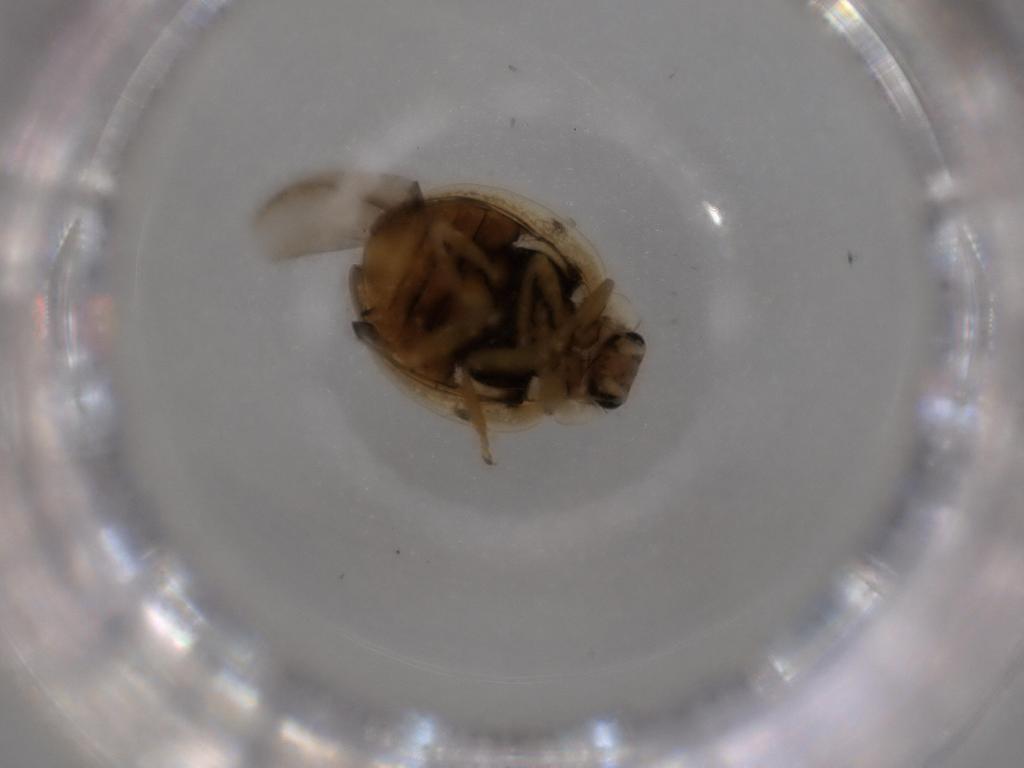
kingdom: Animalia
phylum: Arthropoda
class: Insecta
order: Coleoptera
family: Coccinellidae
